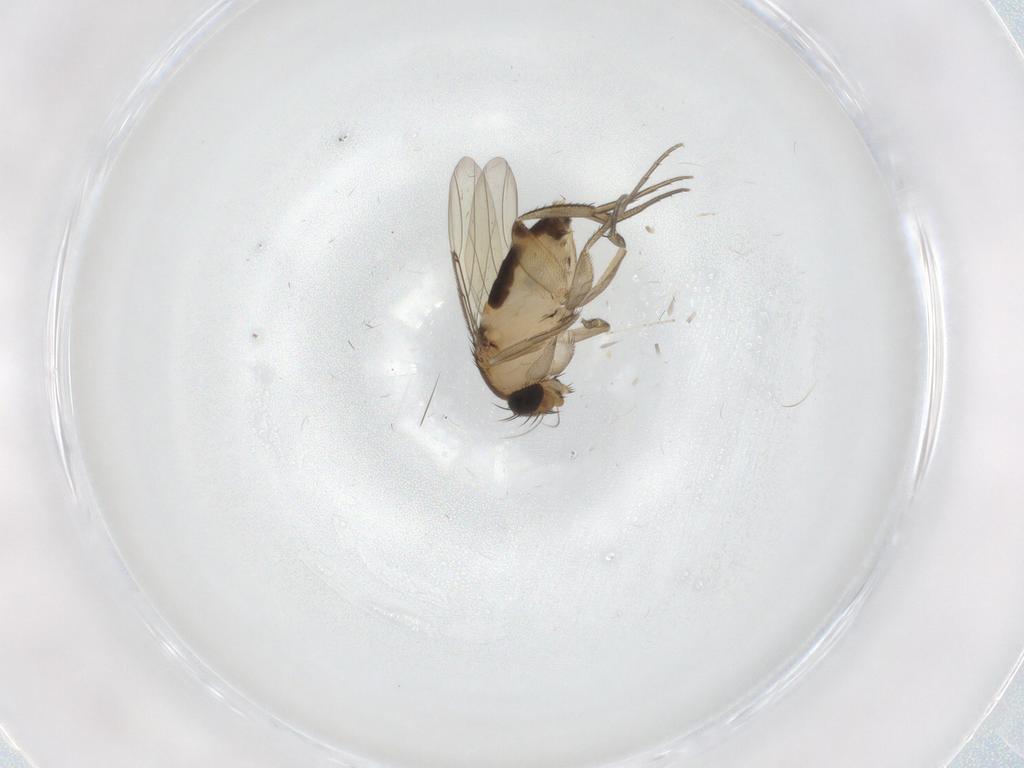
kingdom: Animalia
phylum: Arthropoda
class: Insecta
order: Diptera
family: Phoridae
